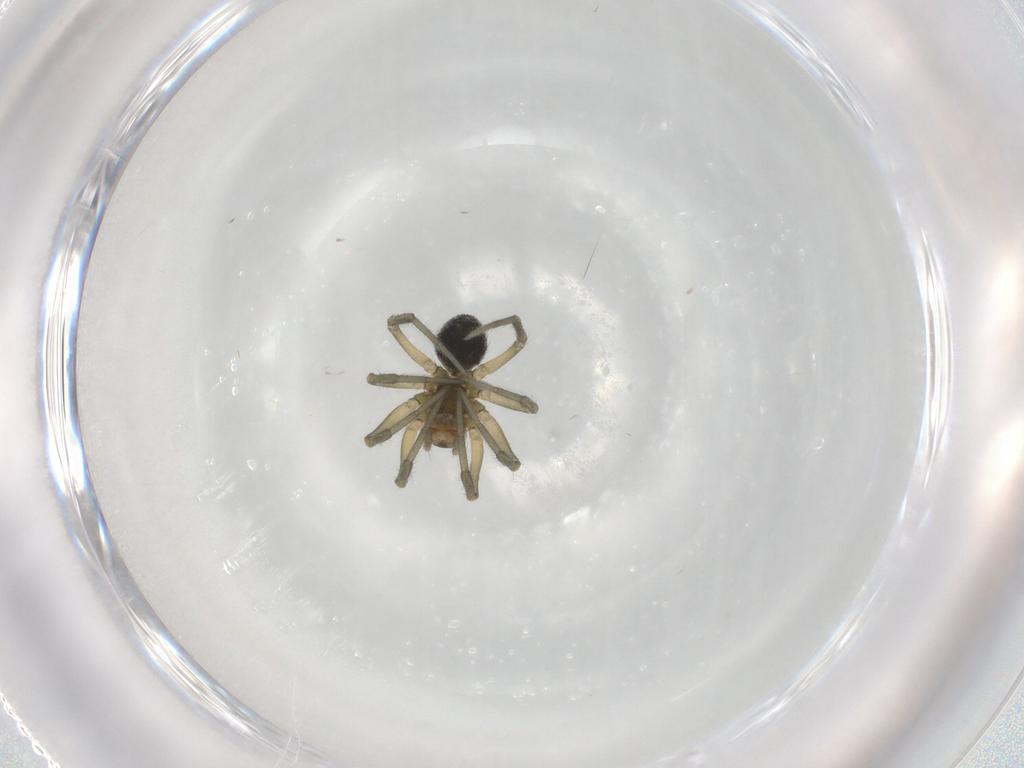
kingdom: Animalia
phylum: Arthropoda
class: Arachnida
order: Araneae
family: Linyphiidae
